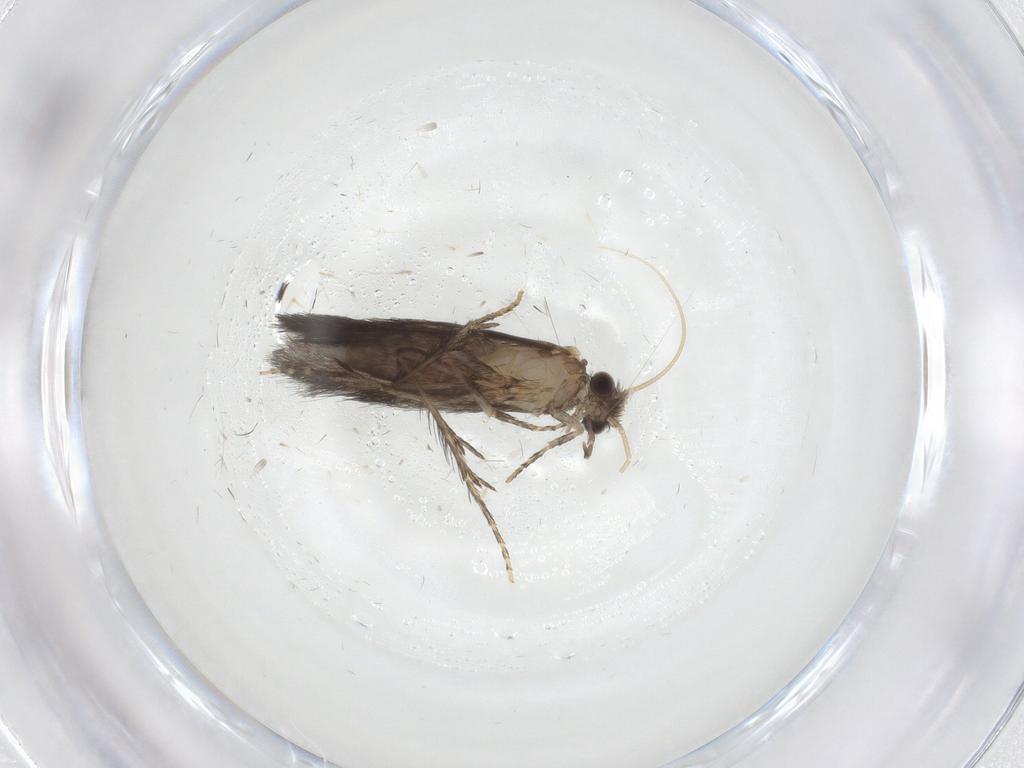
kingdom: Animalia
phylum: Arthropoda
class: Insecta
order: Trichoptera
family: Hydroptilidae
